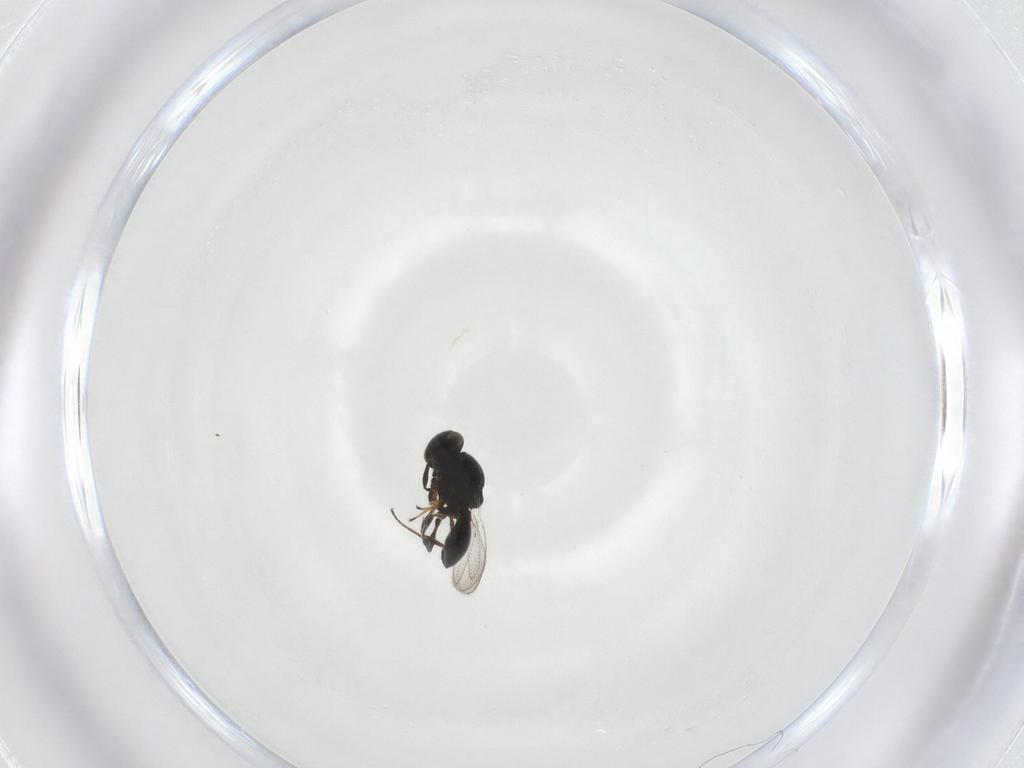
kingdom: Animalia
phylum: Arthropoda
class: Insecta
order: Hymenoptera
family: Platygastridae
